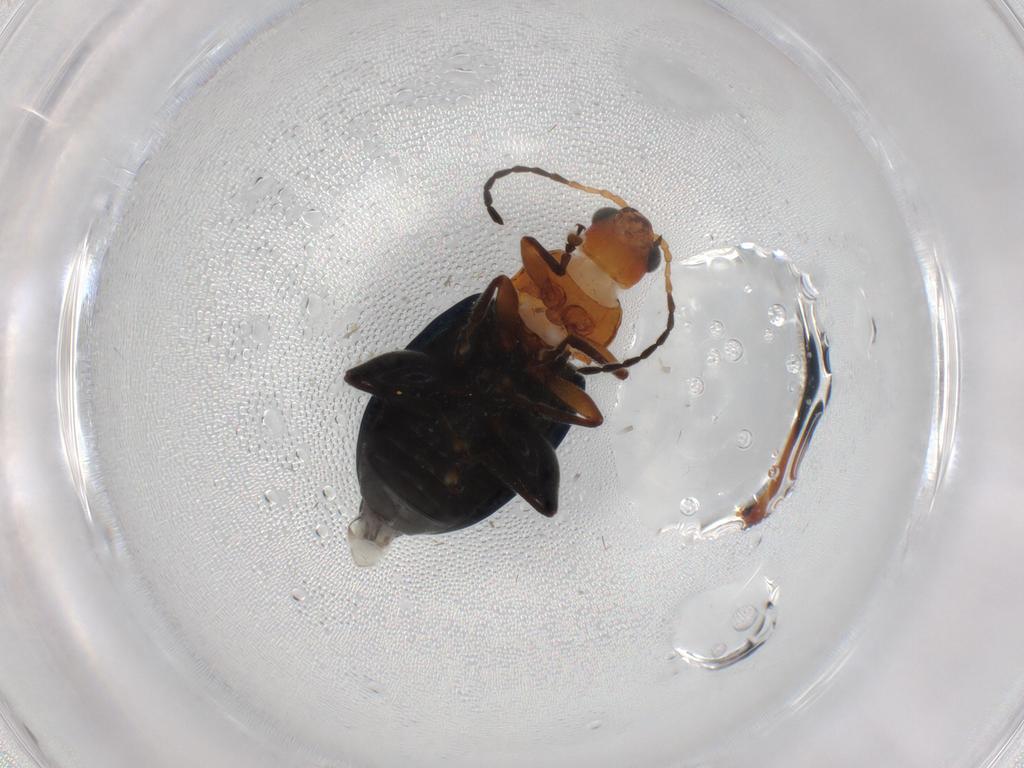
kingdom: Animalia
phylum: Arthropoda
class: Insecta
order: Coleoptera
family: Chrysomelidae
